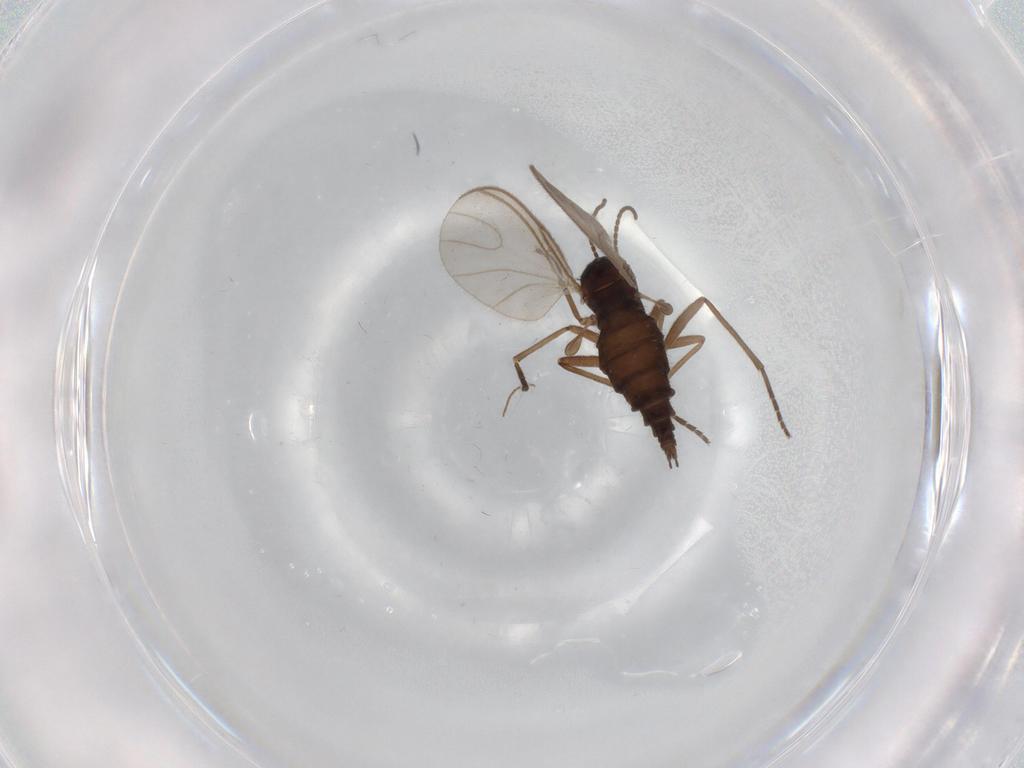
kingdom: Animalia
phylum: Arthropoda
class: Insecta
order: Diptera
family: Sciaridae
